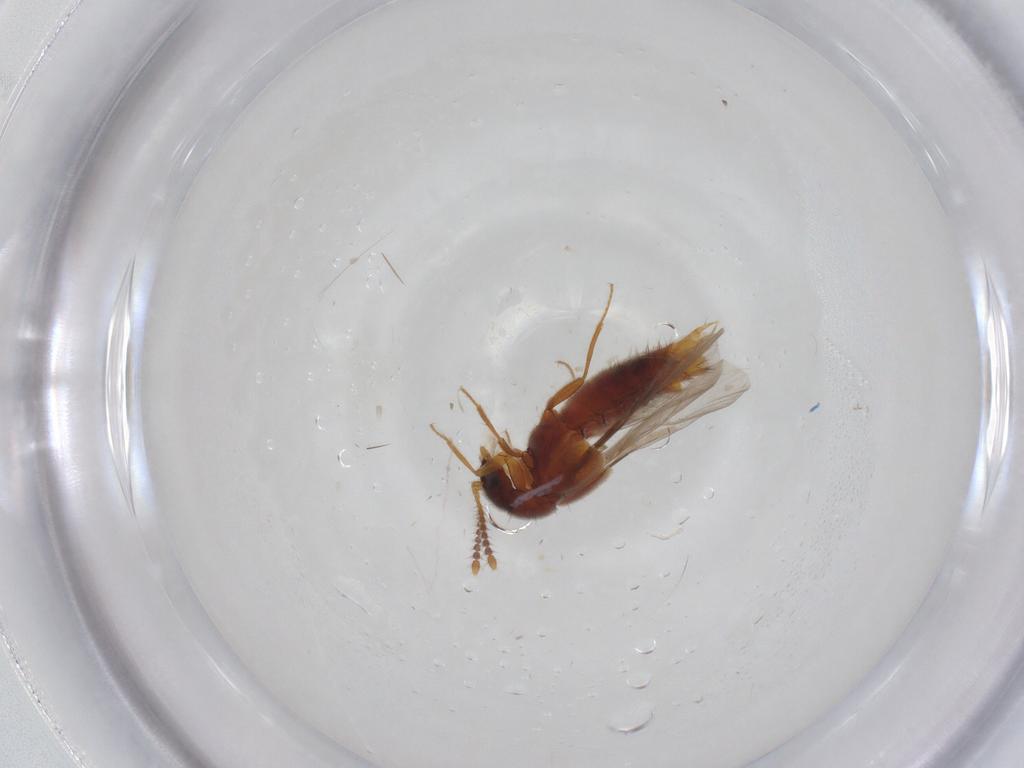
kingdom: Animalia
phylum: Arthropoda
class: Insecta
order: Coleoptera
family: Staphylinidae
